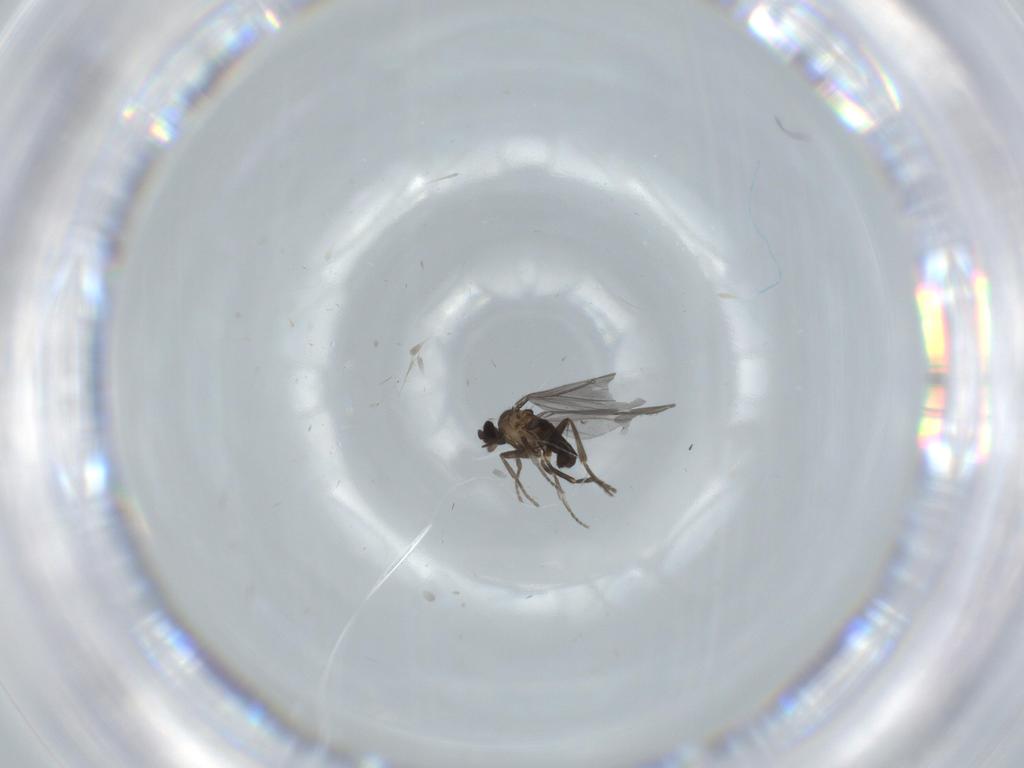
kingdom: Animalia
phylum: Arthropoda
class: Insecta
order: Diptera
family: Phoridae
